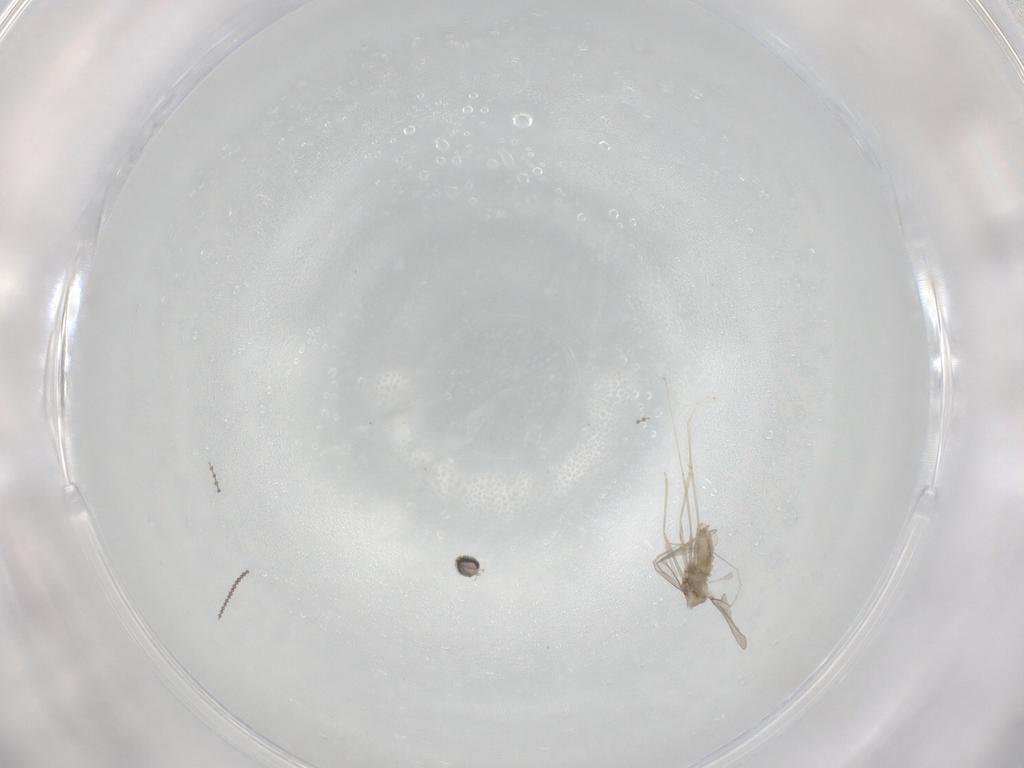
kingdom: Animalia
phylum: Arthropoda
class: Insecta
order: Diptera
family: Cecidomyiidae
